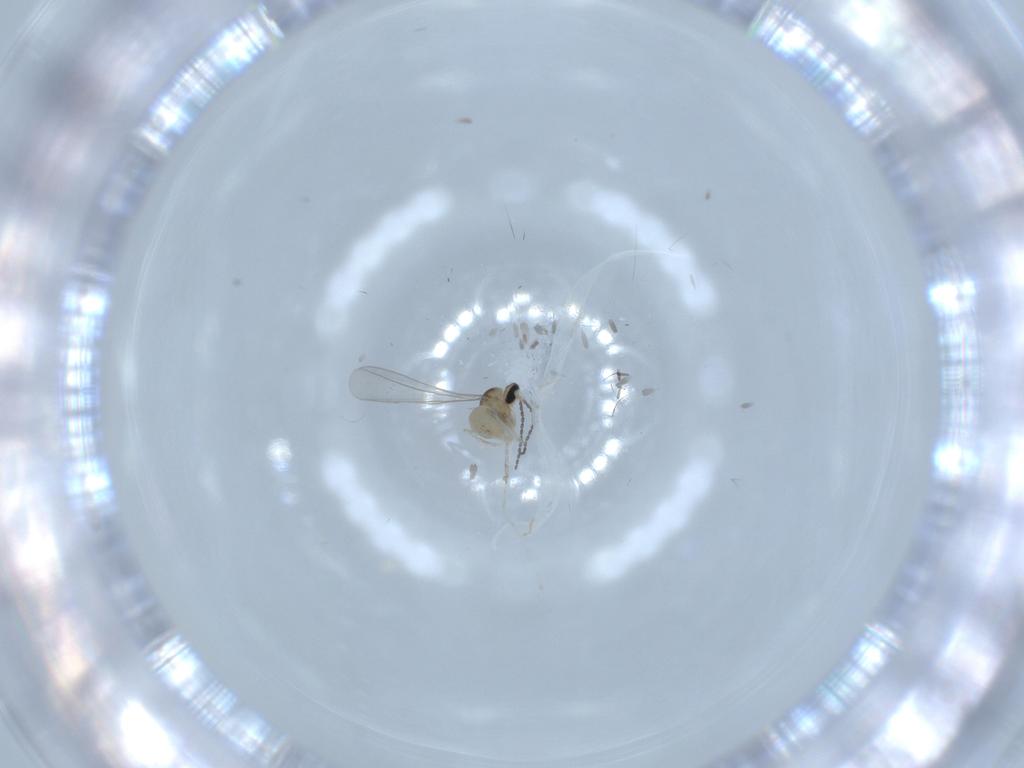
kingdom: Animalia
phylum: Arthropoda
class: Insecta
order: Diptera
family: Cecidomyiidae
